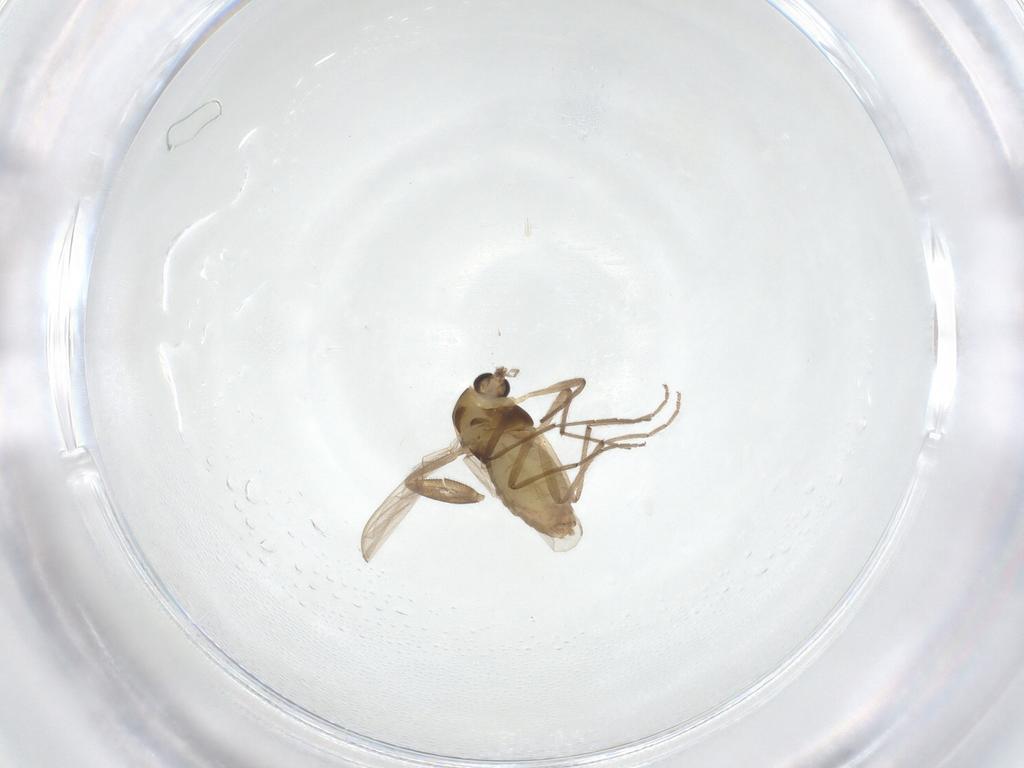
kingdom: Animalia
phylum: Arthropoda
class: Insecta
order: Diptera
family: Chironomidae
